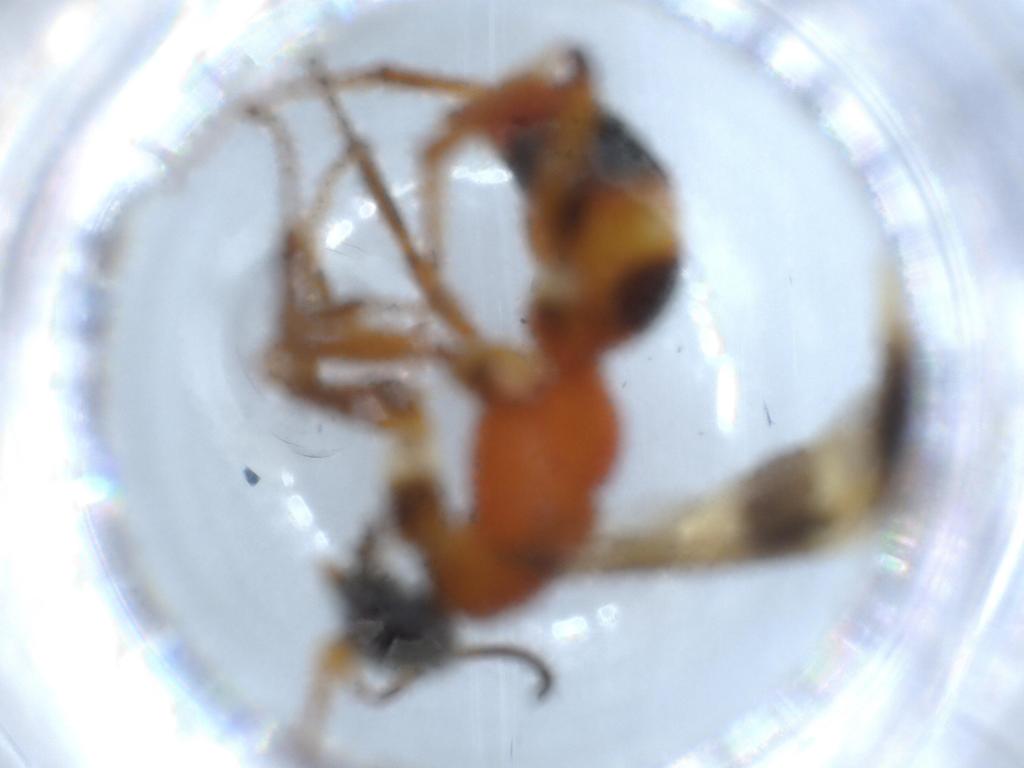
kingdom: Animalia
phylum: Arthropoda
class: Insecta
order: Hymenoptera
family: Pompilidae
